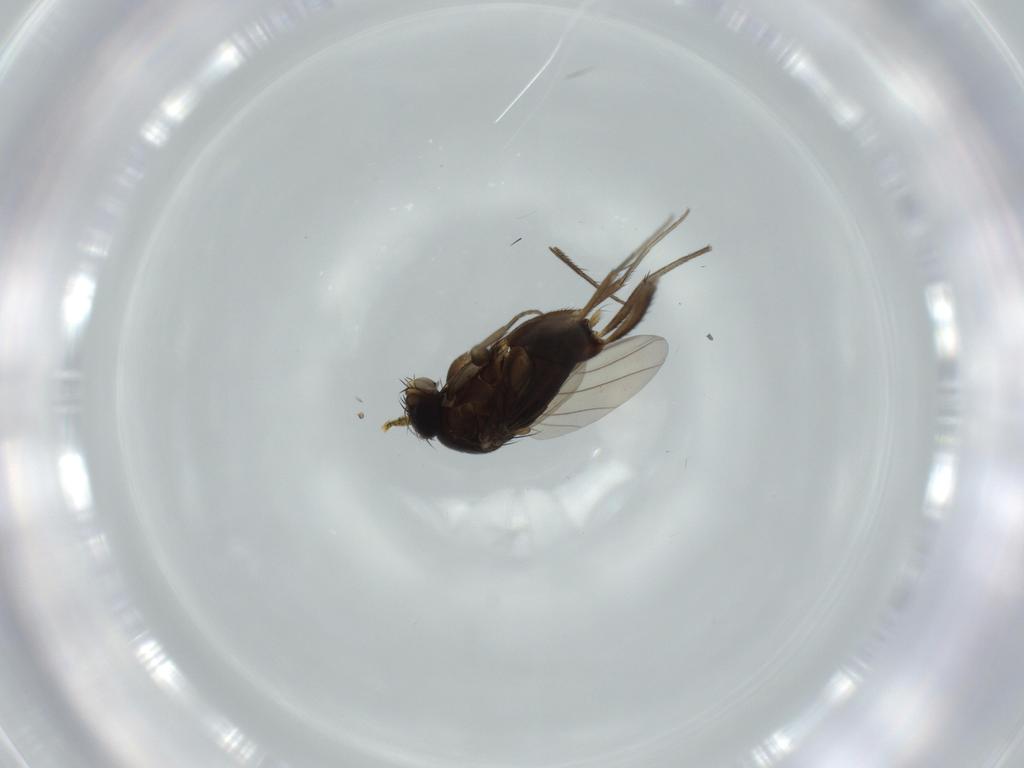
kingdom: Animalia
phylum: Arthropoda
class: Insecta
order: Diptera
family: Phoridae
